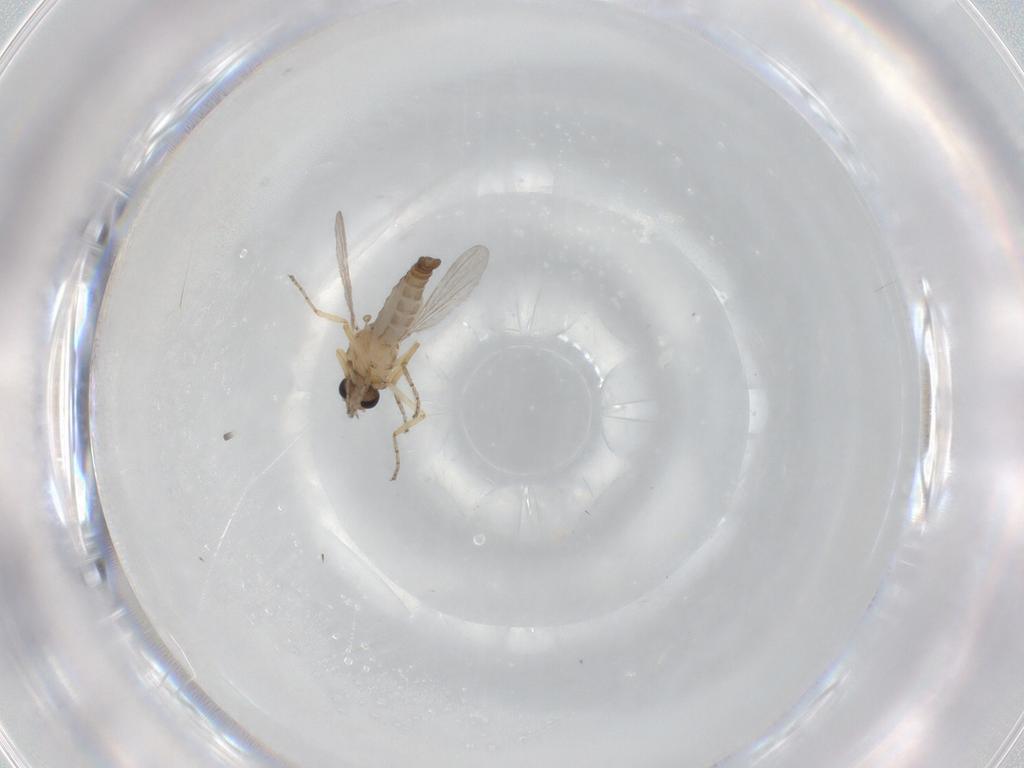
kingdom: Animalia
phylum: Arthropoda
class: Insecta
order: Diptera
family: Ceratopogonidae
